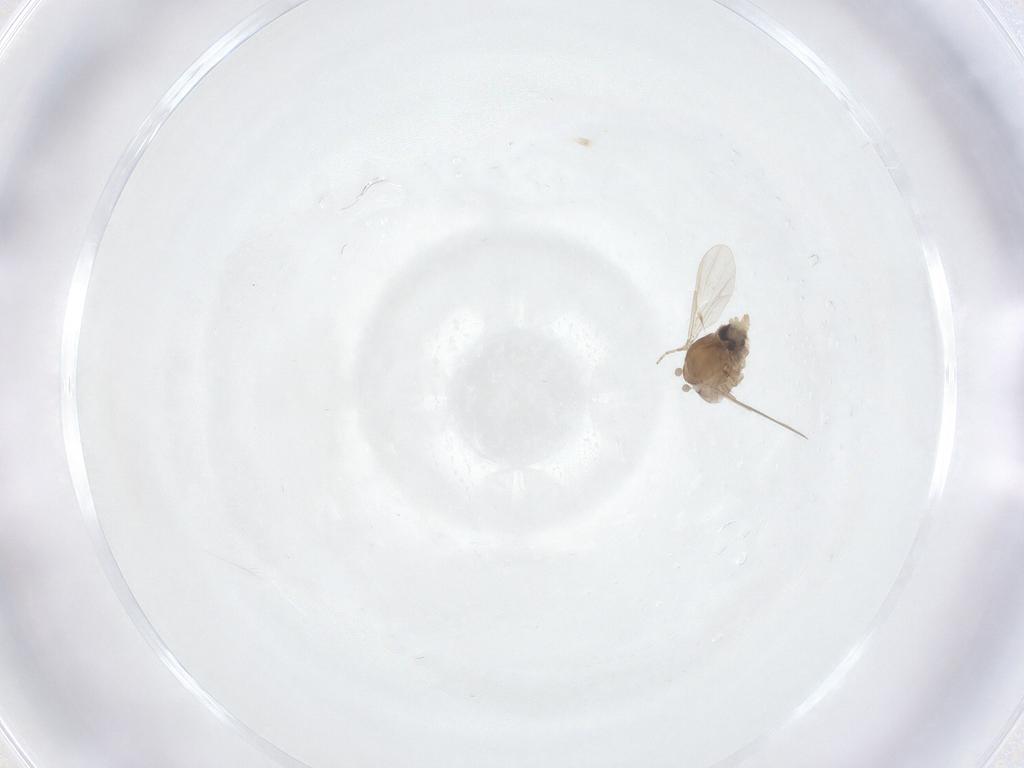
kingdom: Animalia
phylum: Arthropoda
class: Insecta
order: Diptera
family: Ceratopogonidae
